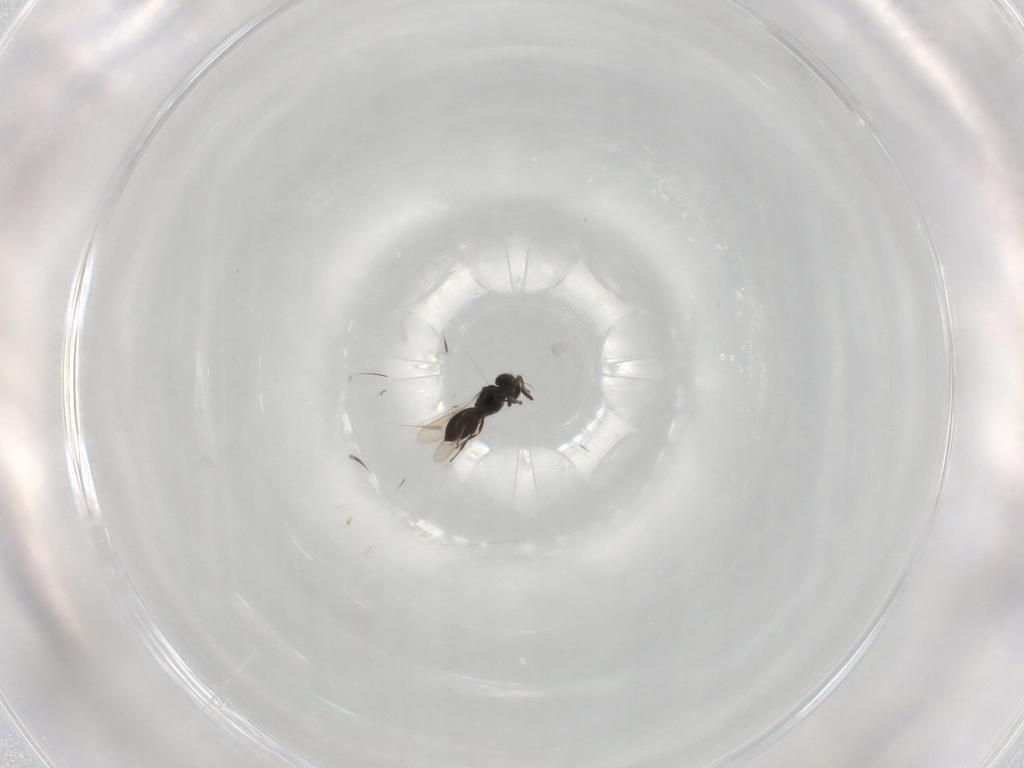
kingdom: Animalia
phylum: Arthropoda
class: Insecta
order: Hymenoptera
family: Scelionidae
